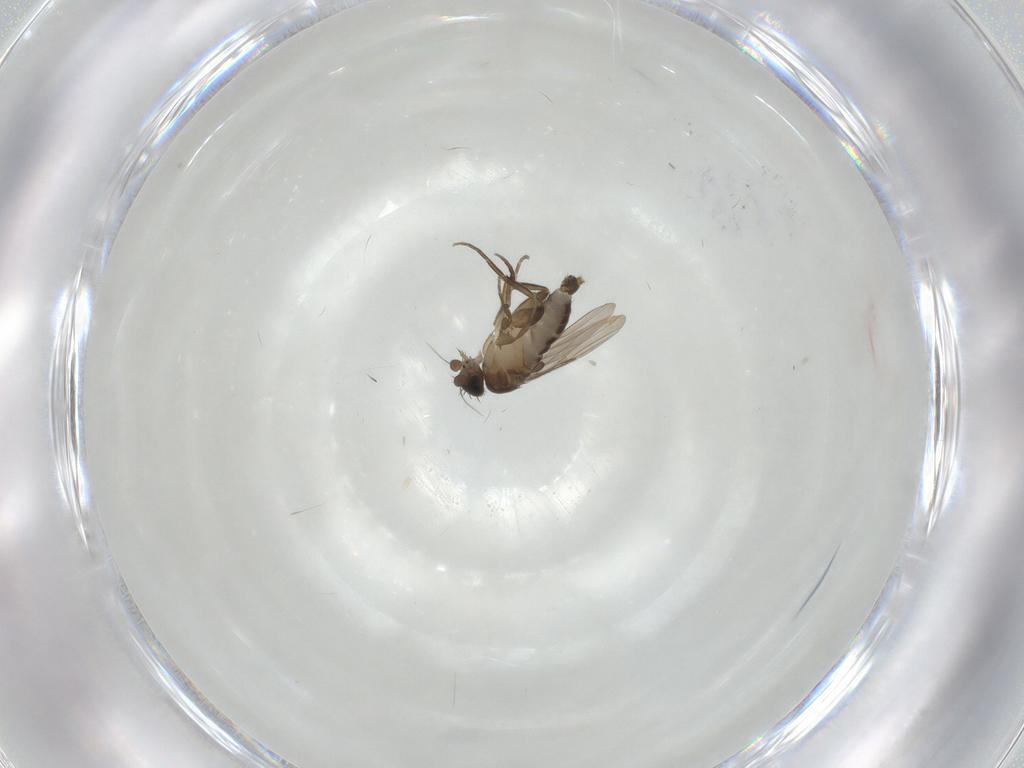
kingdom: Animalia
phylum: Arthropoda
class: Insecta
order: Diptera
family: Phoridae
